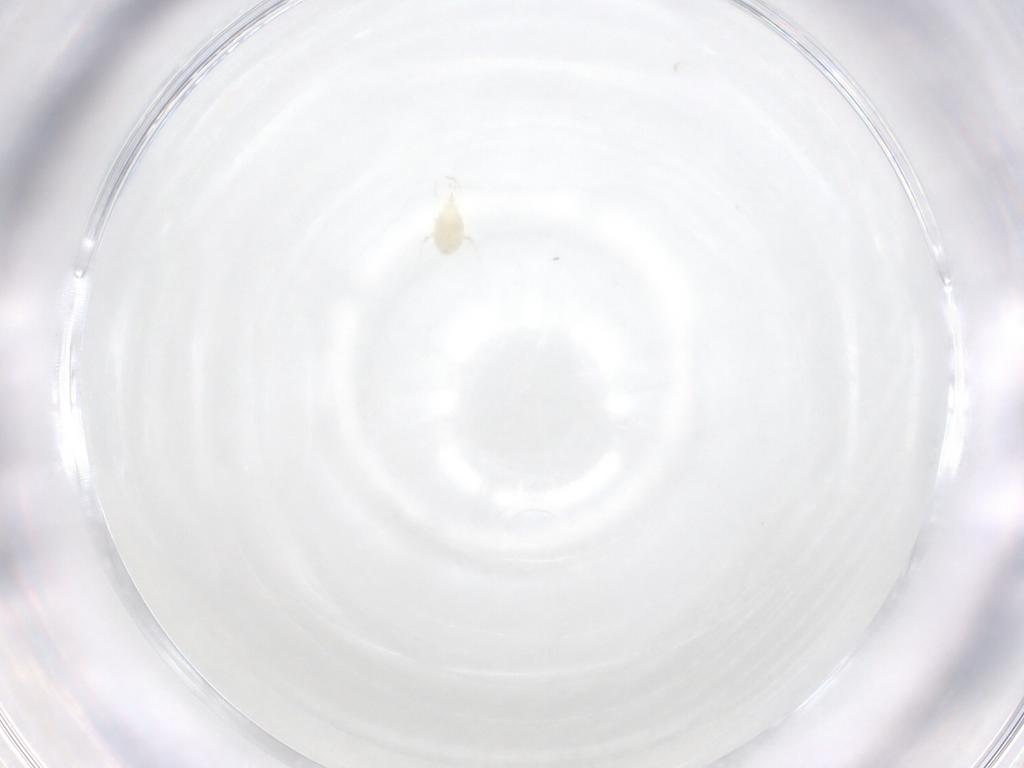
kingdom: Animalia
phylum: Arthropoda
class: Arachnida
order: Mesostigmata
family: Phytoseiidae
